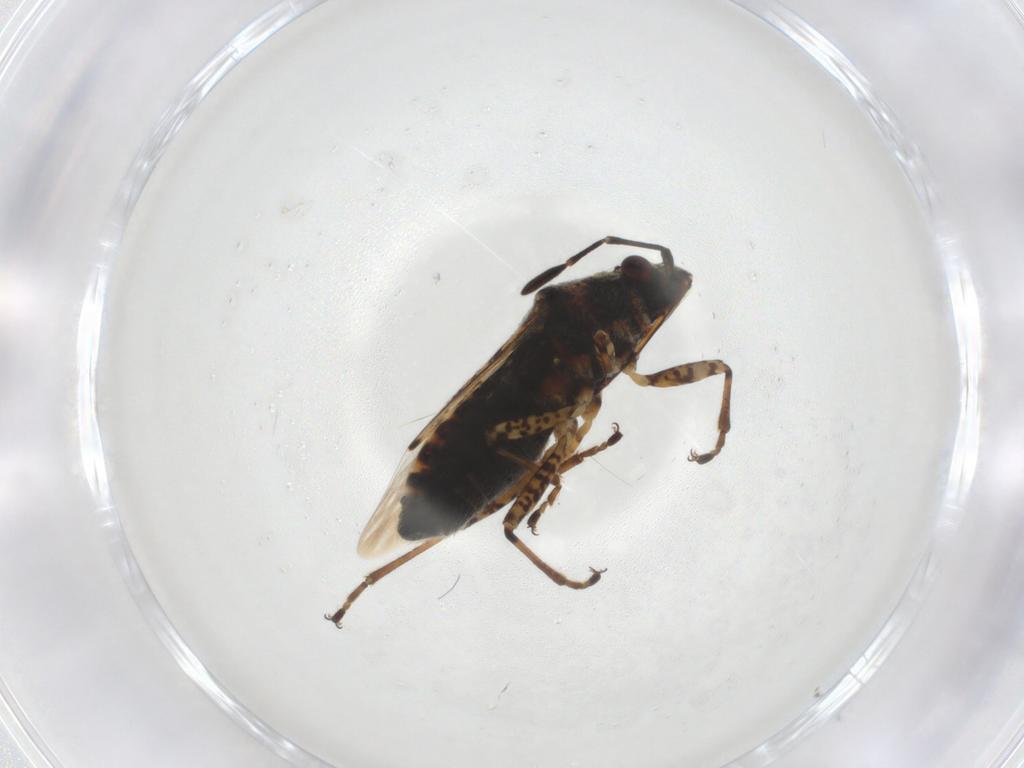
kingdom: Animalia
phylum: Arthropoda
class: Insecta
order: Hemiptera
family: Lygaeidae
